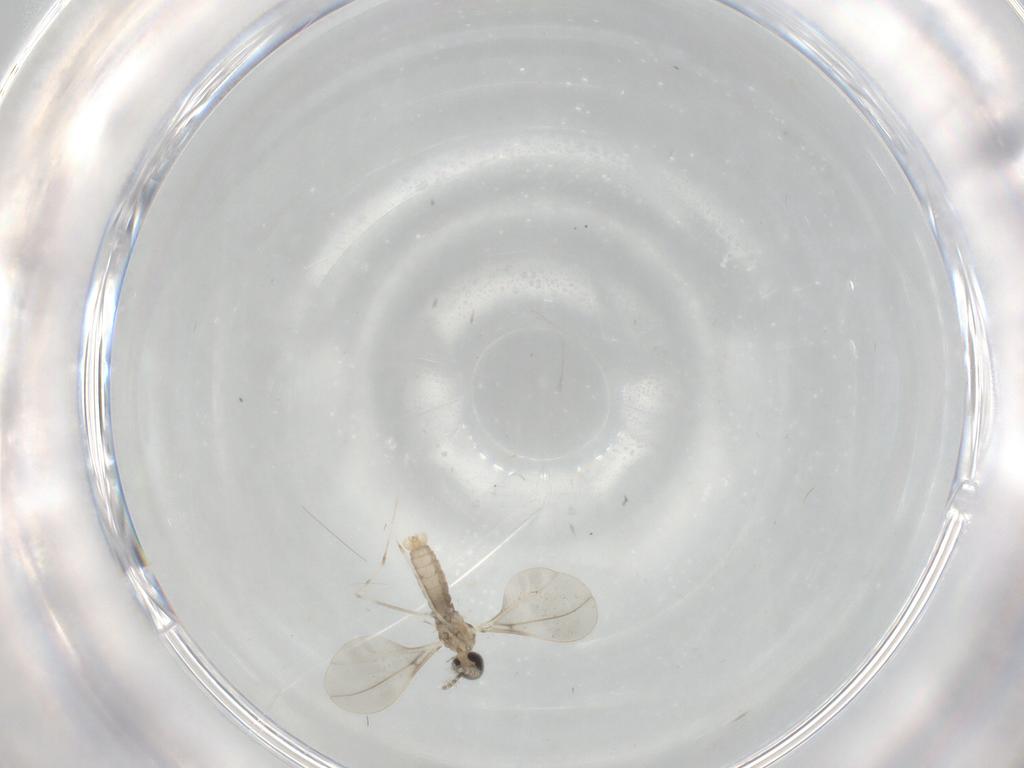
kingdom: Animalia
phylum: Arthropoda
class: Insecta
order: Diptera
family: Cecidomyiidae
